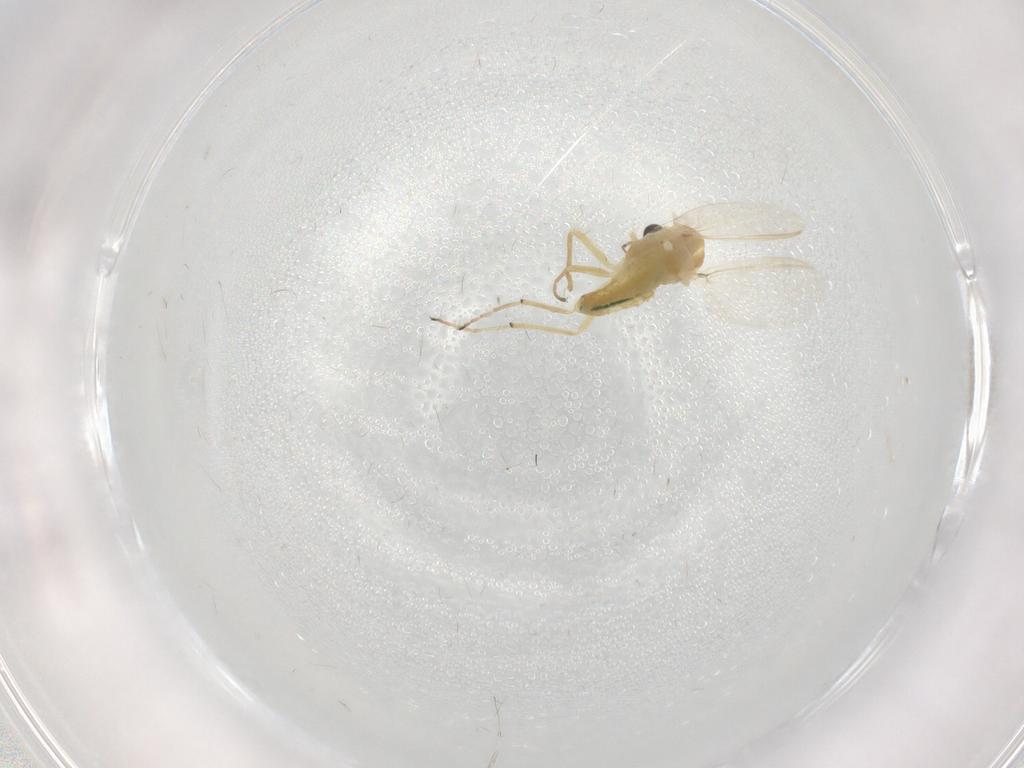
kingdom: Animalia
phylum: Arthropoda
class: Insecta
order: Diptera
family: Chironomidae
